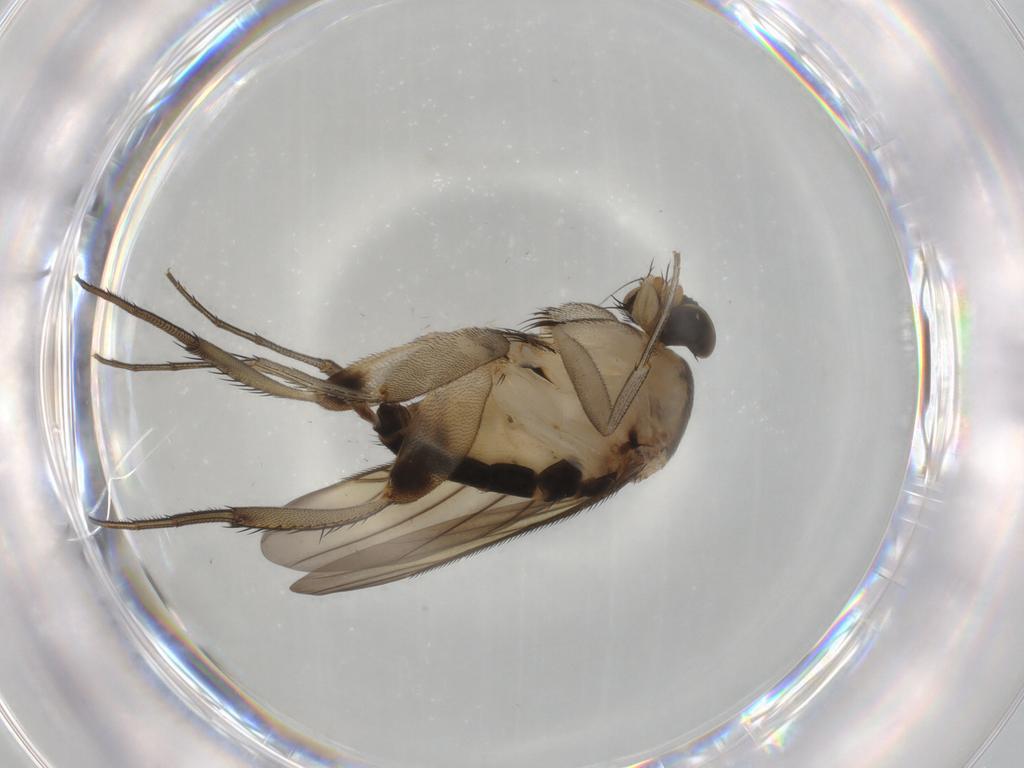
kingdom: Animalia
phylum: Arthropoda
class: Insecta
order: Diptera
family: Phoridae
